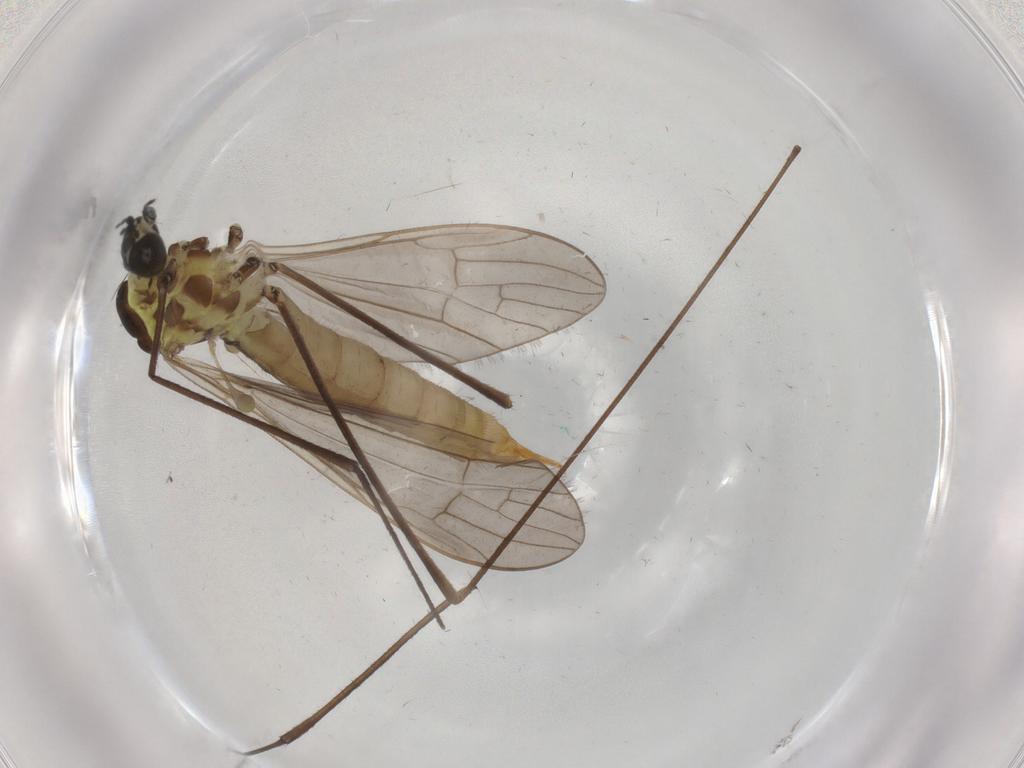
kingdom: Animalia
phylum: Arthropoda
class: Insecta
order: Diptera
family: Limoniidae
